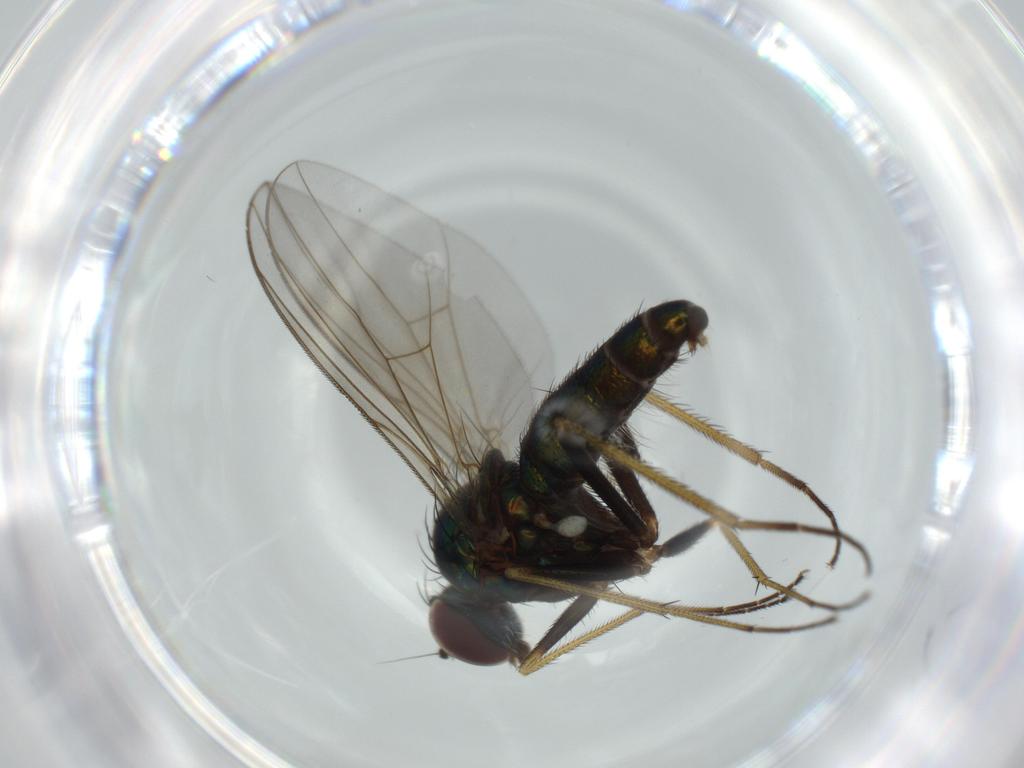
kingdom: Animalia
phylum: Arthropoda
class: Insecta
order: Diptera
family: Dolichopodidae
